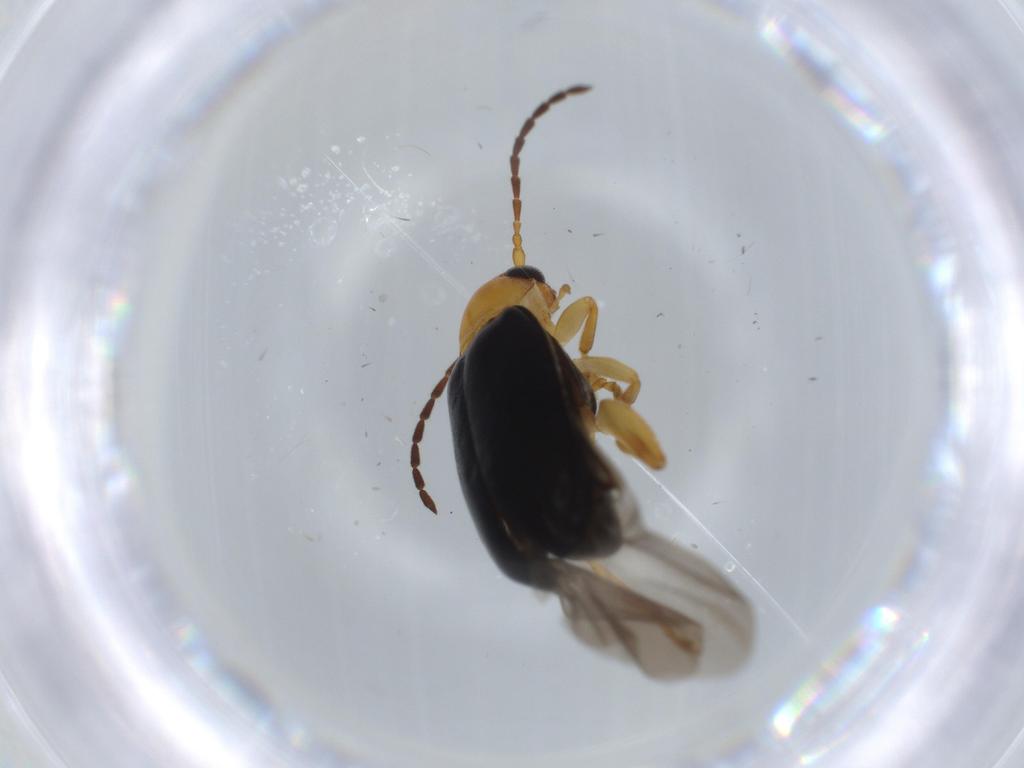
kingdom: Animalia
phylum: Arthropoda
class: Insecta
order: Coleoptera
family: Chrysomelidae
